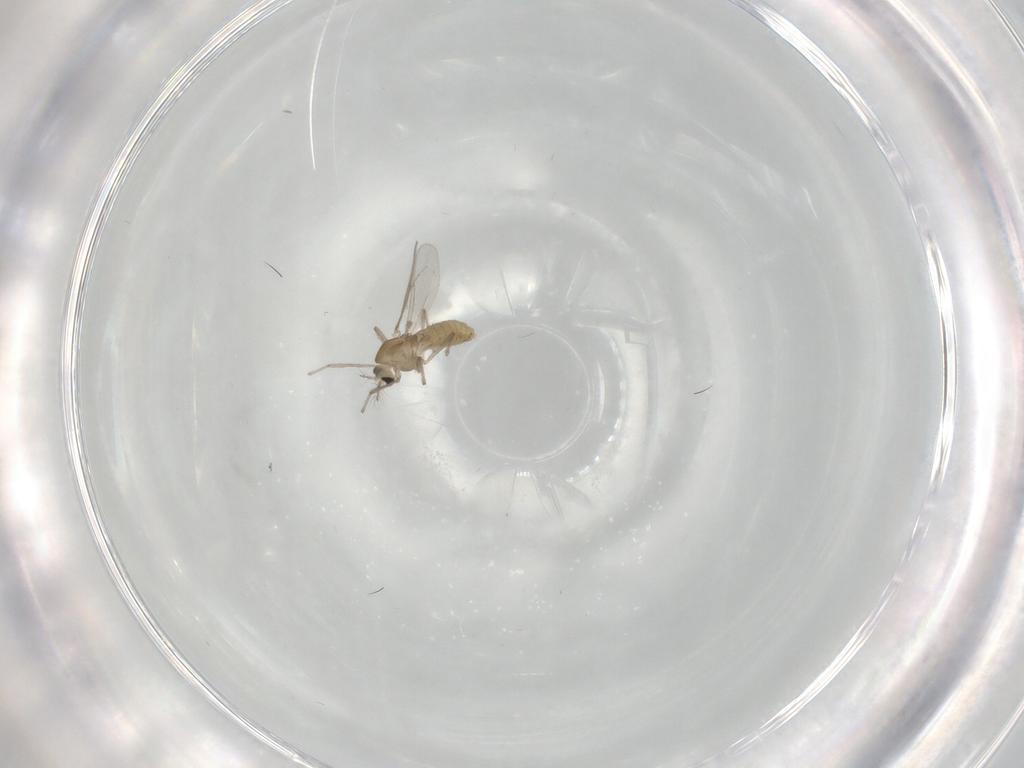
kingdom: Animalia
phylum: Arthropoda
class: Insecta
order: Diptera
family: Chironomidae
